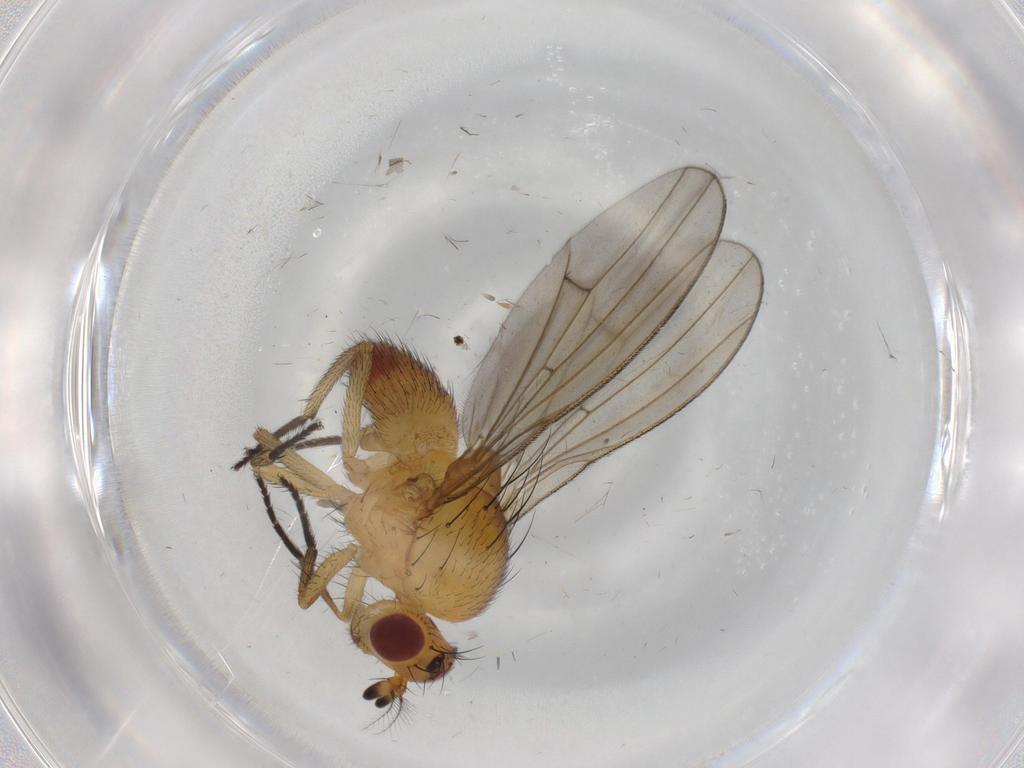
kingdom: Animalia
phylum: Arthropoda
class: Insecta
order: Diptera
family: Lauxaniidae
